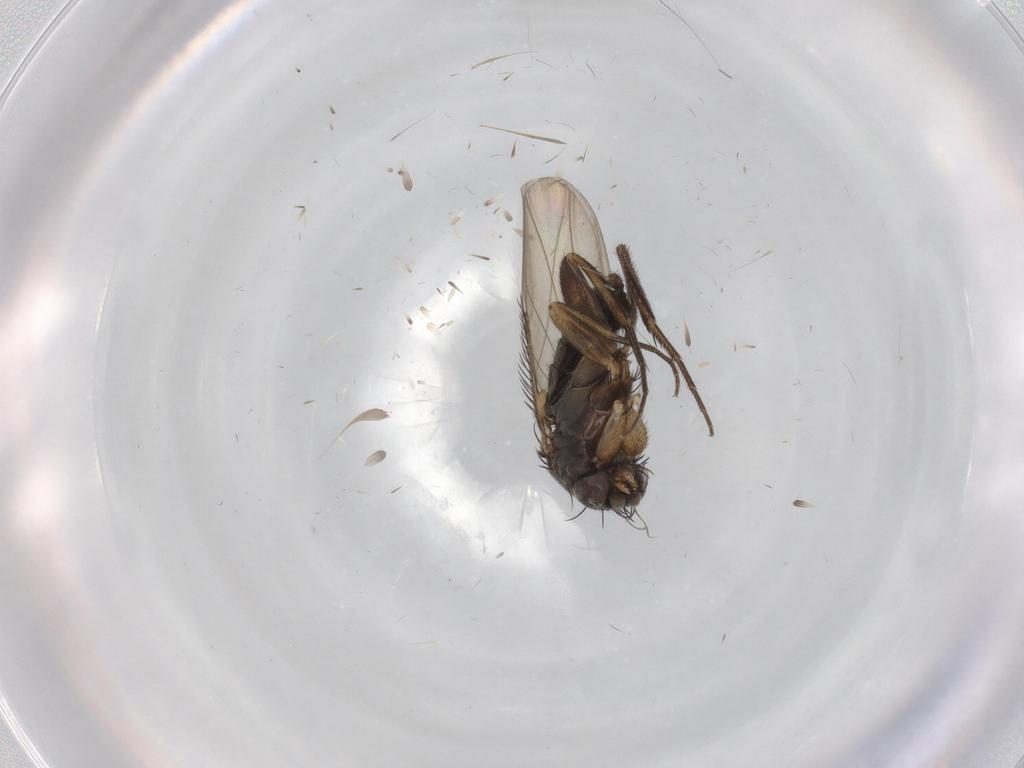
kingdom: Animalia
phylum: Arthropoda
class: Insecta
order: Diptera
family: Phoridae
